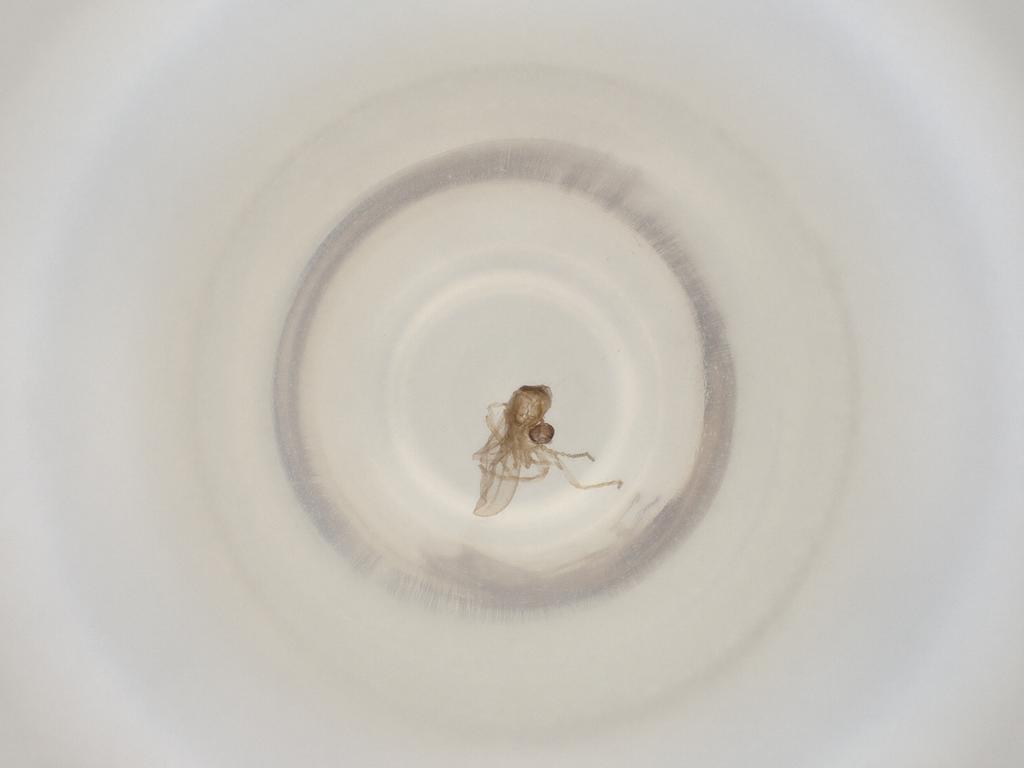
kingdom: Animalia
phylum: Arthropoda
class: Insecta
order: Diptera
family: Cecidomyiidae
